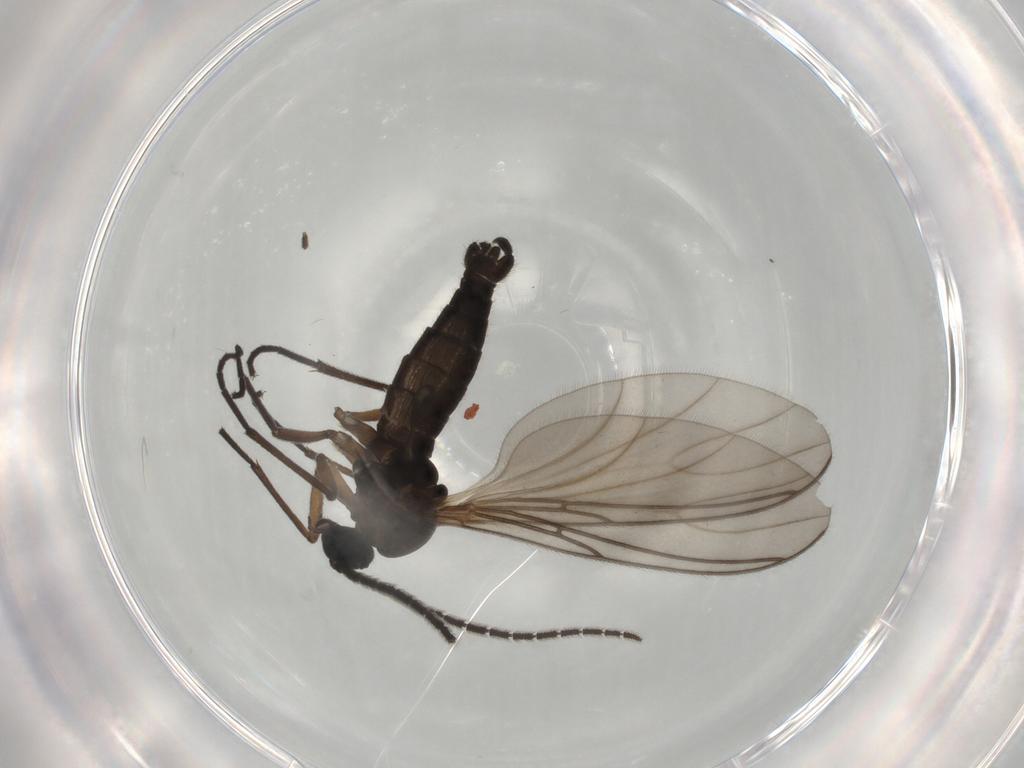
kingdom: Animalia
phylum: Arthropoda
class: Insecta
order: Diptera
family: Sciaridae
